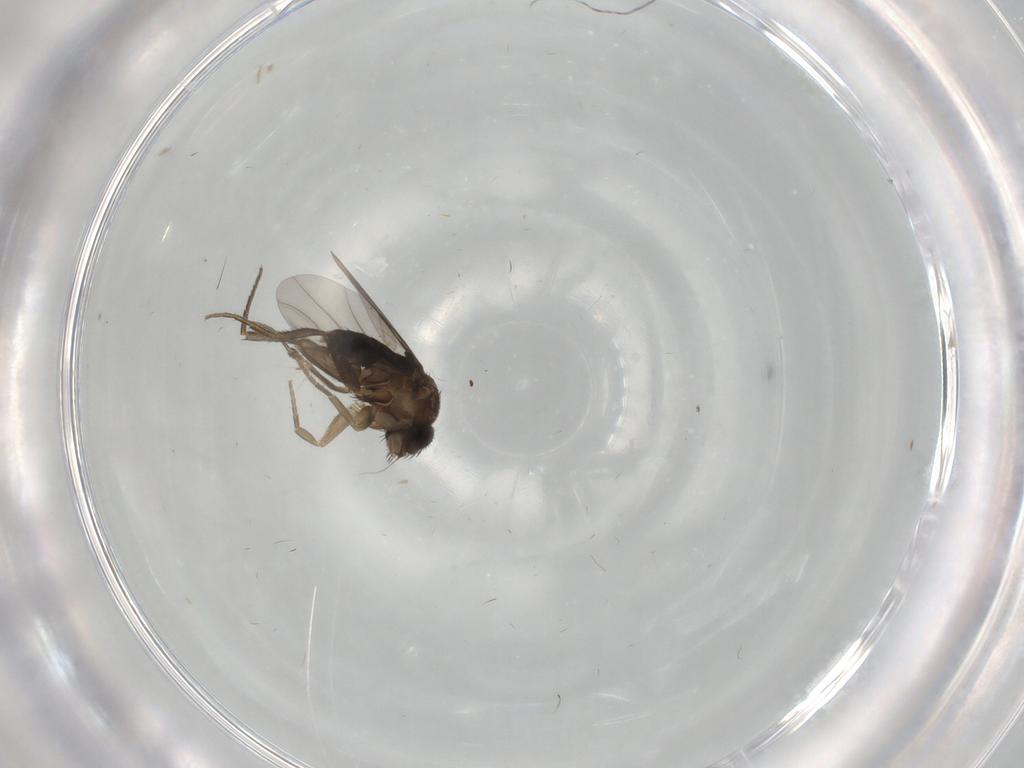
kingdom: Animalia
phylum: Arthropoda
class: Insecta
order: Diptera
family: Phoridae
